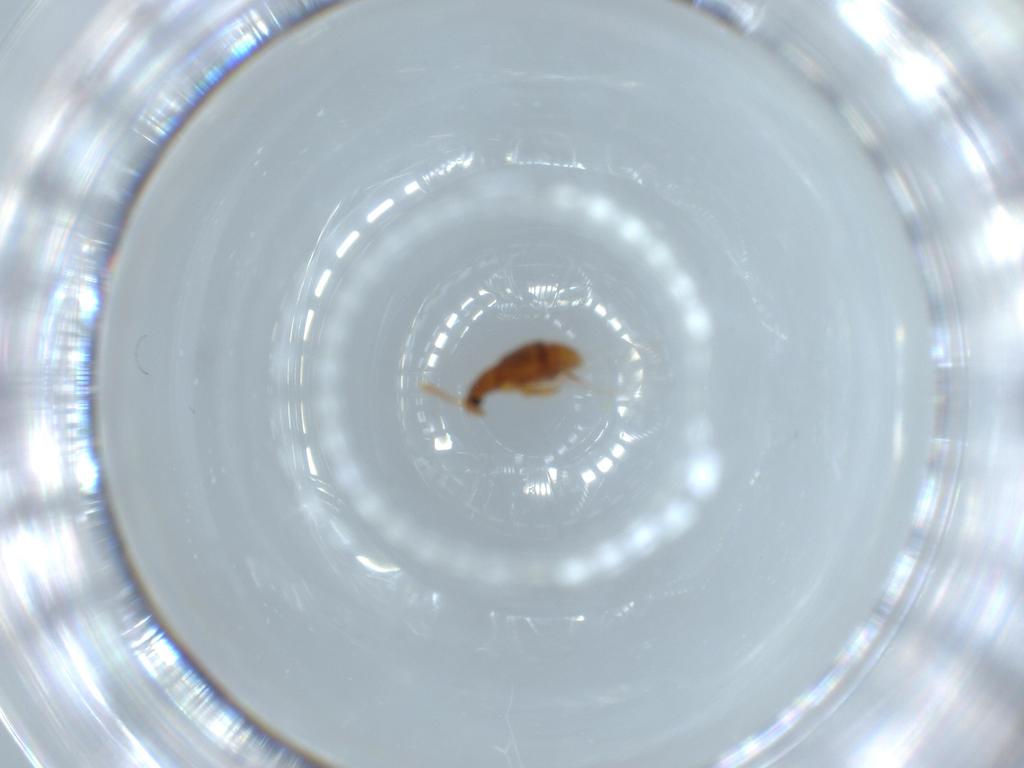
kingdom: Animalia
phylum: Arthropoda
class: Insecta
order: Coleoptera
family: Staphylinidae
